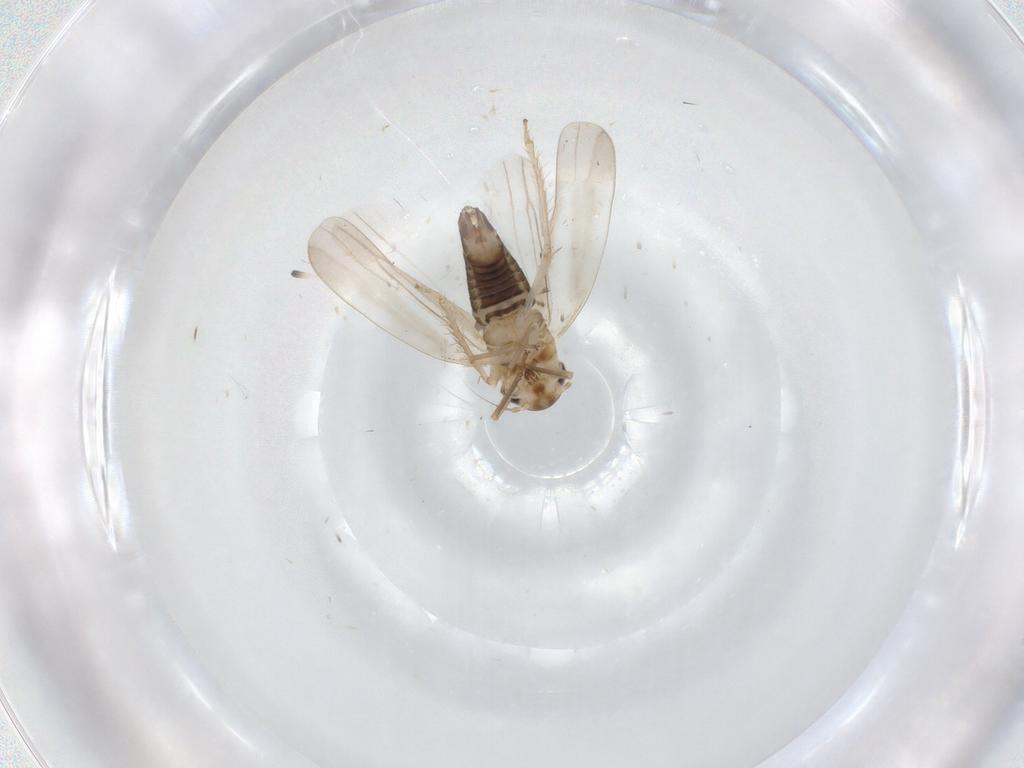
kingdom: Animalia
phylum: Arthropoda
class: Insecta
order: Hemiptera
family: Cicadellidae
